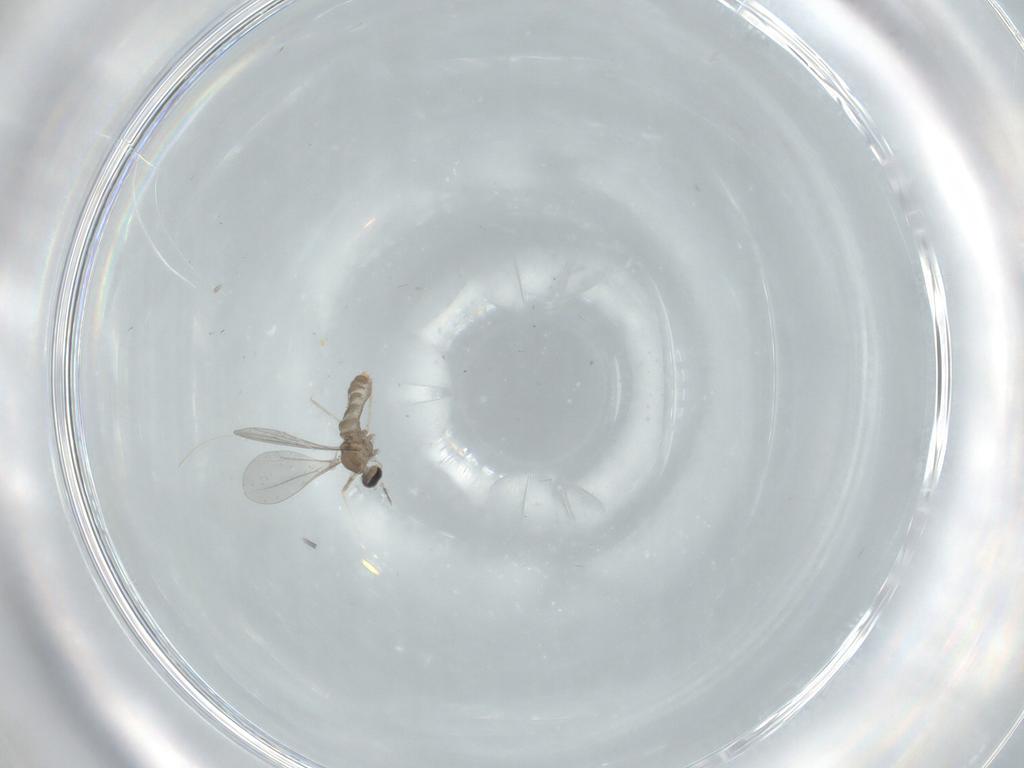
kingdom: Animalia
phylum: Arthropoda
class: Insecta
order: Diptera
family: Cecidomyiidae
